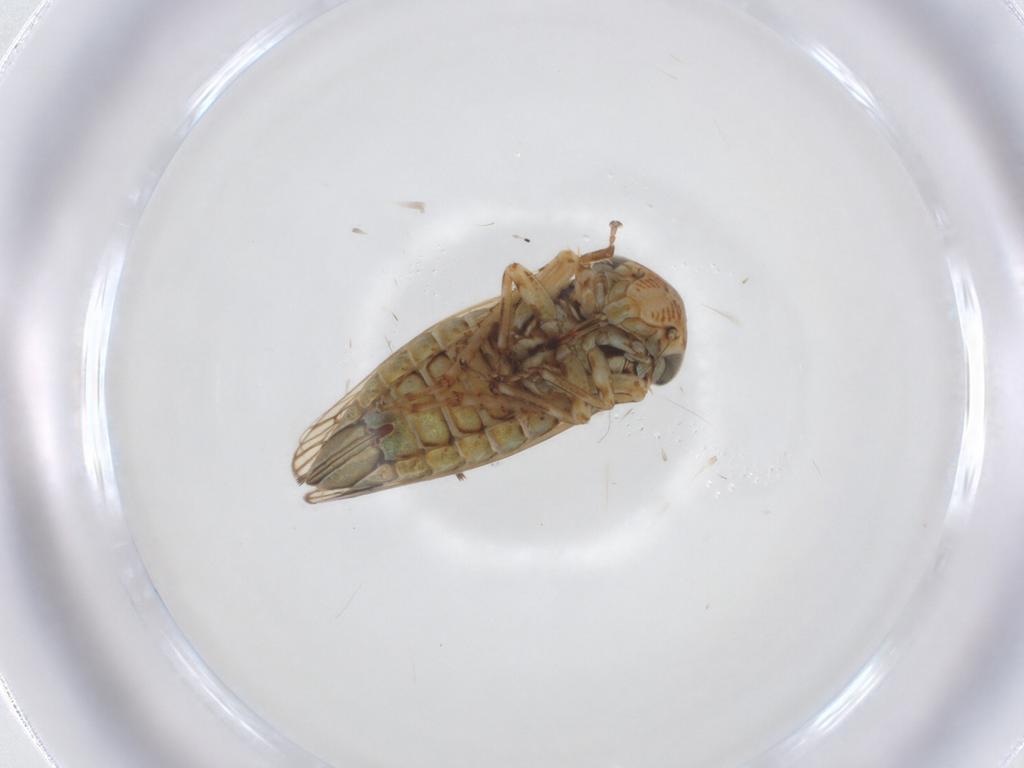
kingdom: Animalia
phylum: Arthropoda
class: Insecta
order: Hemiptera
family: Cicadellidae
